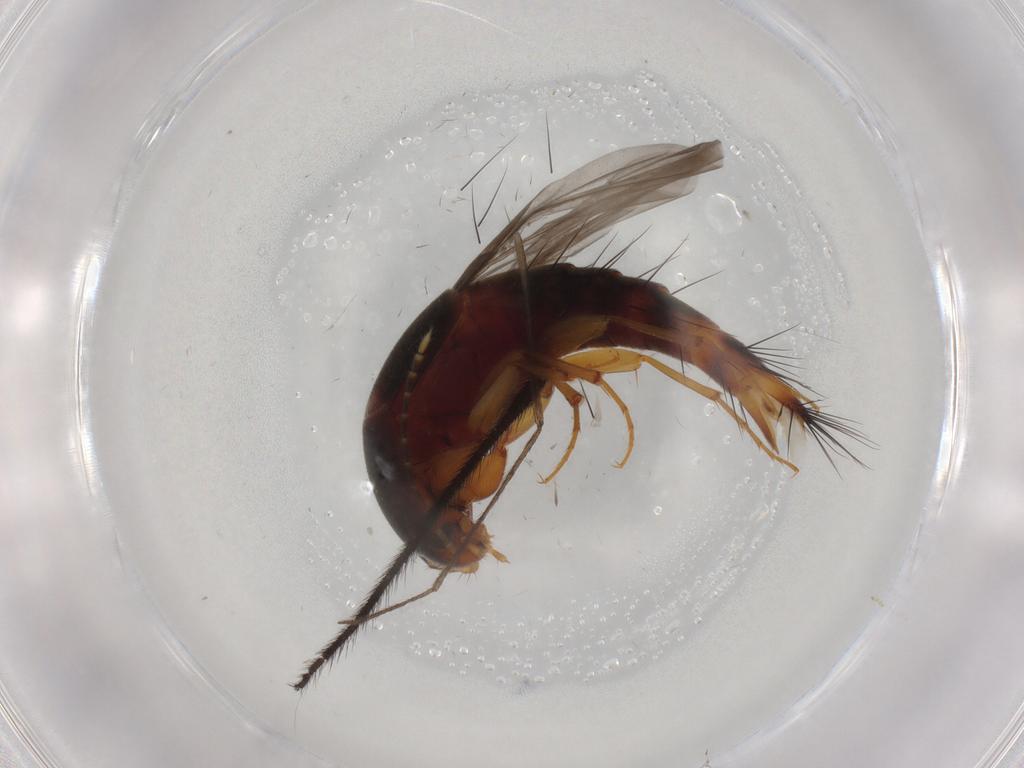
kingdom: Animalia
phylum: Arthropoda
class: Insecta
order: Coleoptera
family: Staphylinidae
